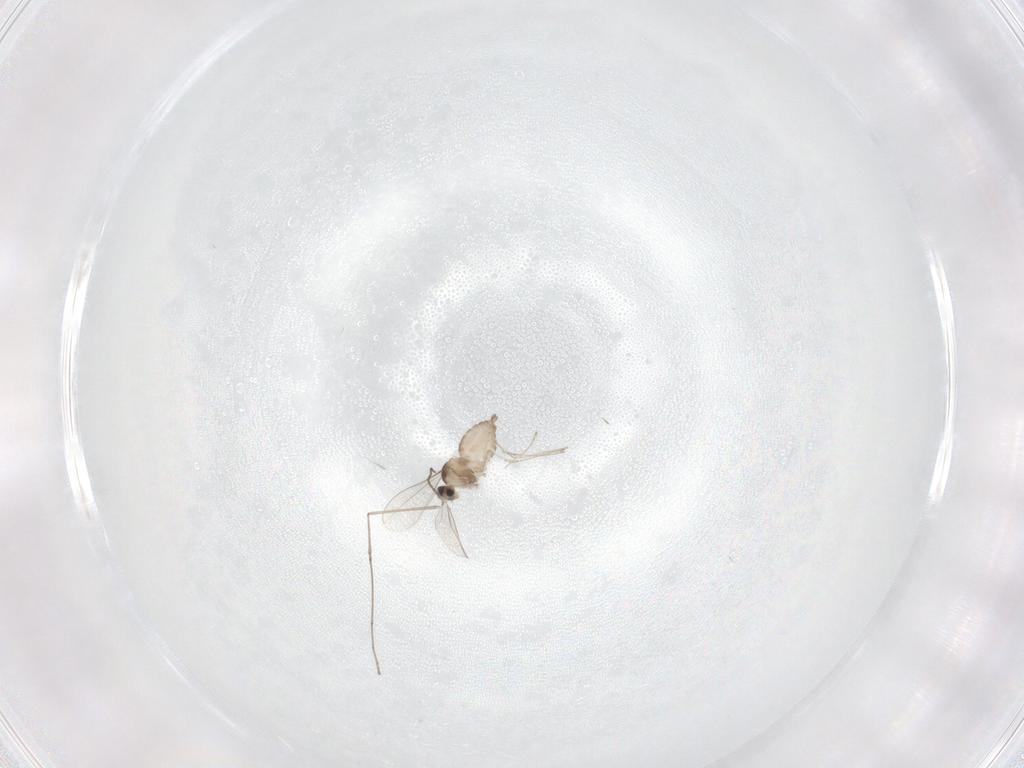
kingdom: Animalia
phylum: Arthropoda
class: Insecta
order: Diptera
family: Cecidomyiidae
